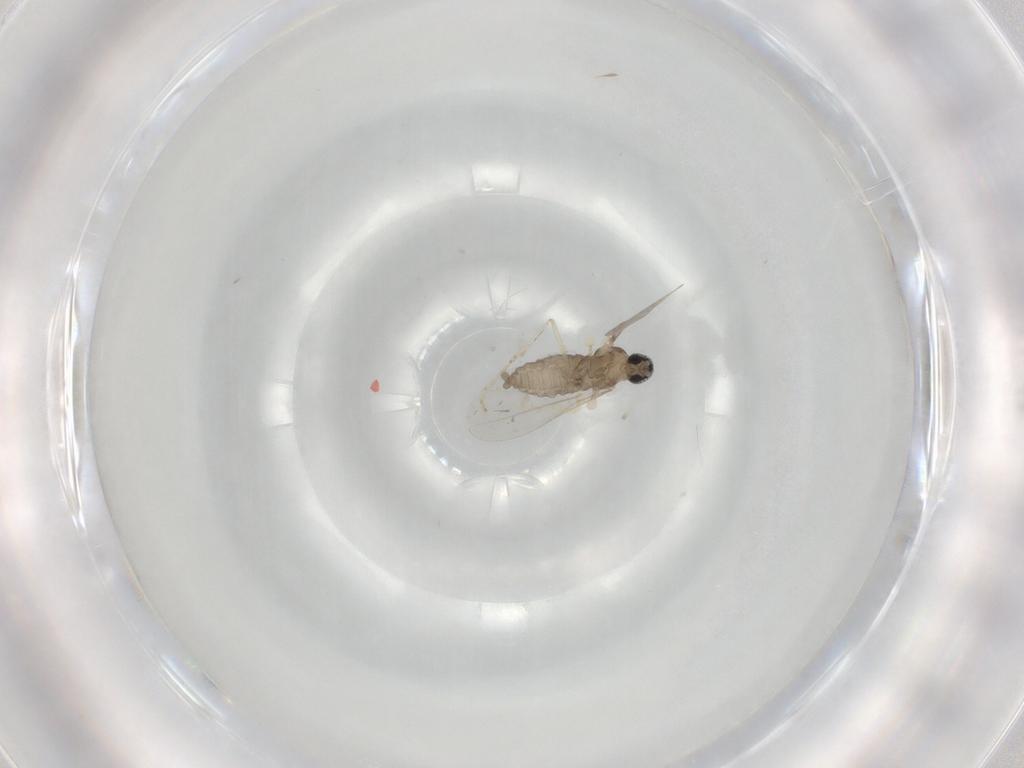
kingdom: Animalia
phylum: Arthropoda
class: Insecta
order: Diptera
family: Cecidomyiidae
